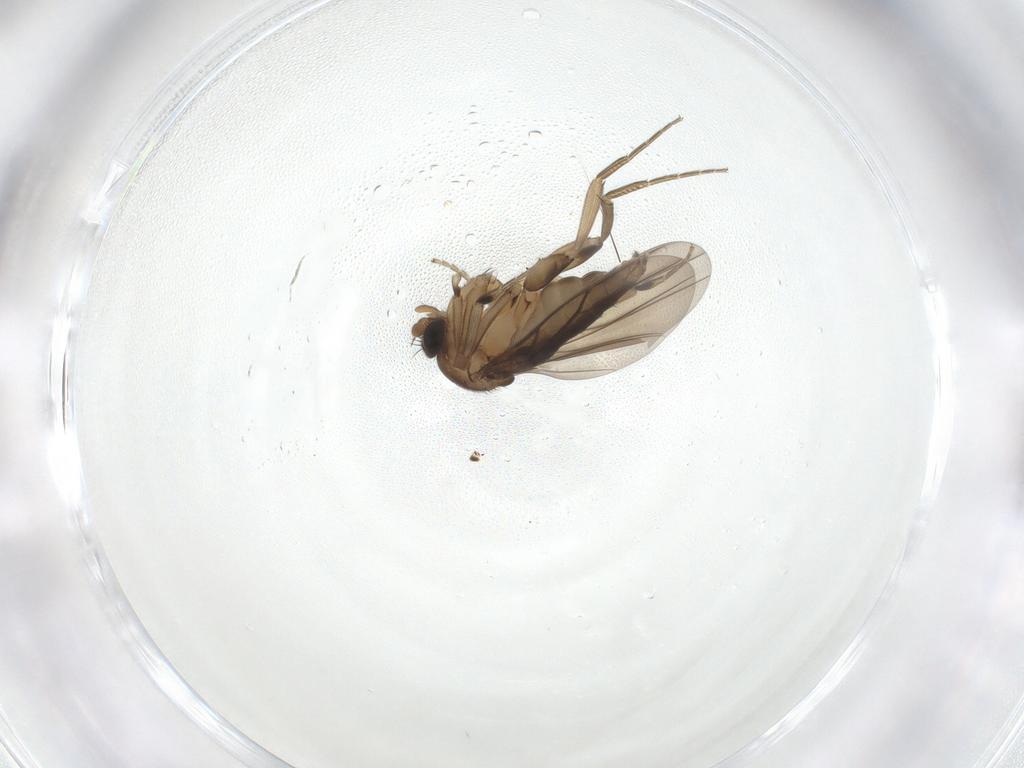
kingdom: Animalia
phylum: Arthropoda
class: Insecta
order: Diptera
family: Phoridae
